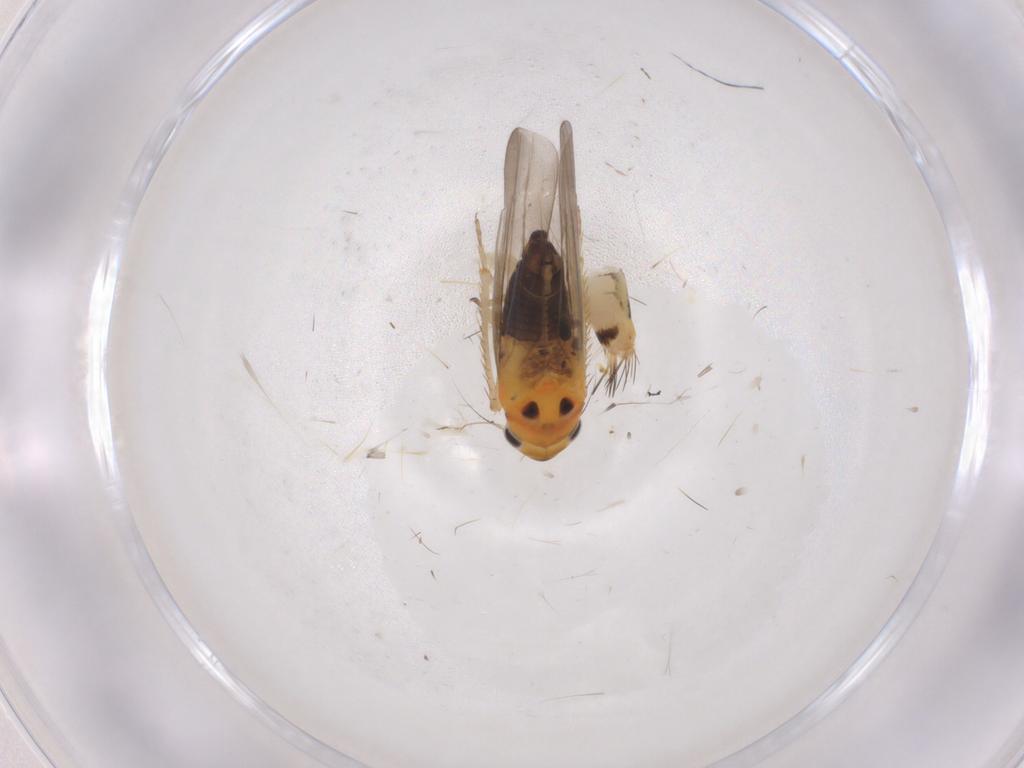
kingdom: Animalia
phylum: Arthropoda
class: Insecta
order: Hemiptera
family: Cicadellidae
